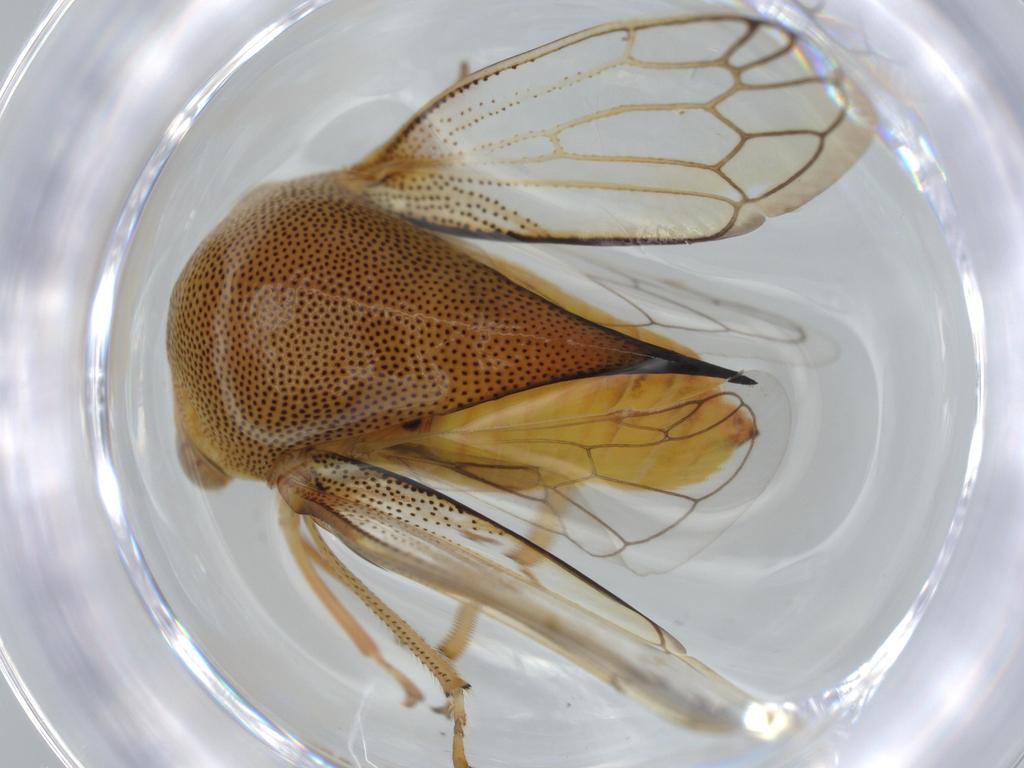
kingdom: Animalia
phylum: Arthropoda
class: Insecta
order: Hemiptera
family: Membracidae
